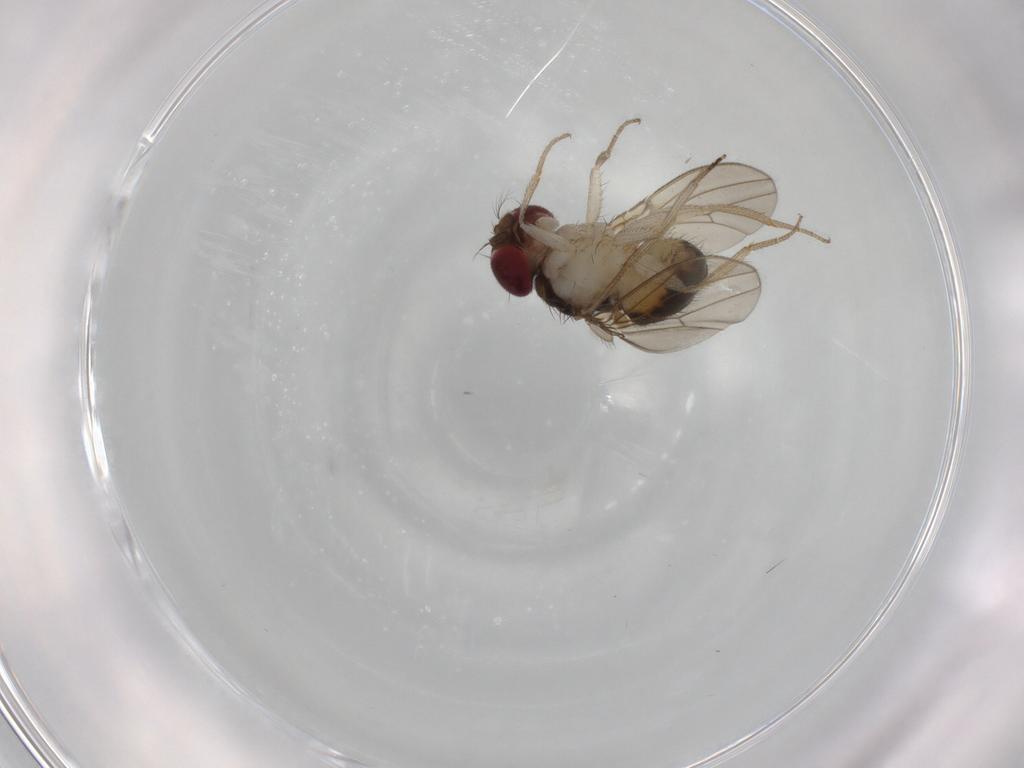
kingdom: Animalia
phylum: Arthropoda
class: Insecta
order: Diptera
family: Drosophilidae
